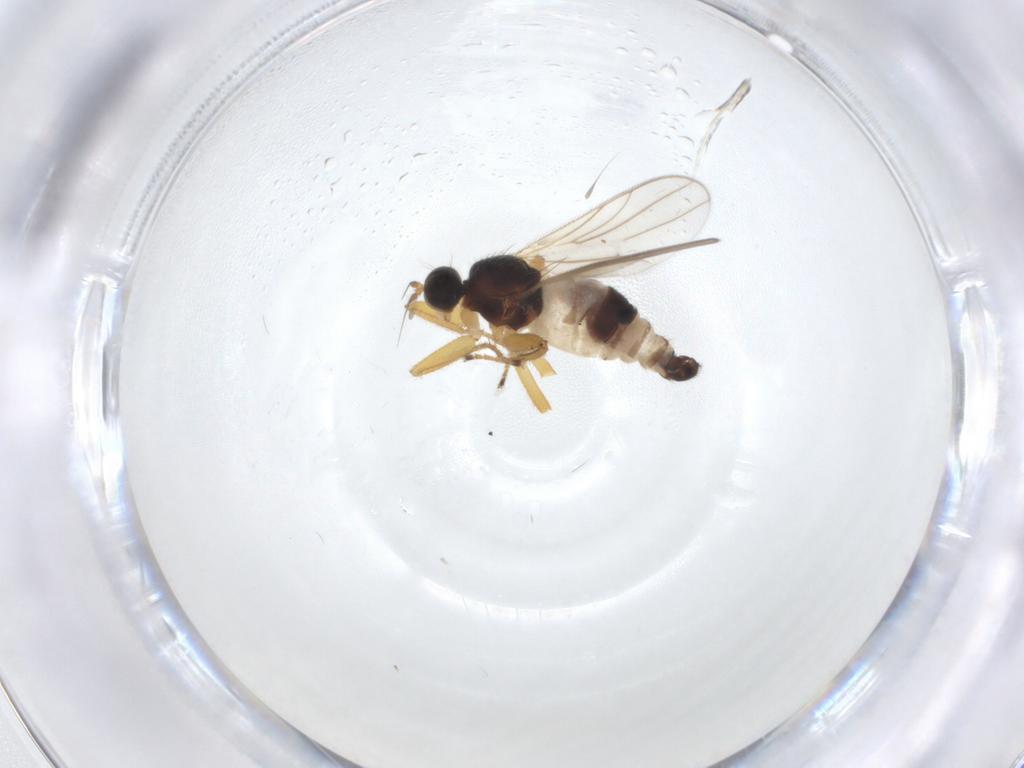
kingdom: Animalia
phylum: Arthropoda
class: Insecta
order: Diptera
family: Hybotidae
